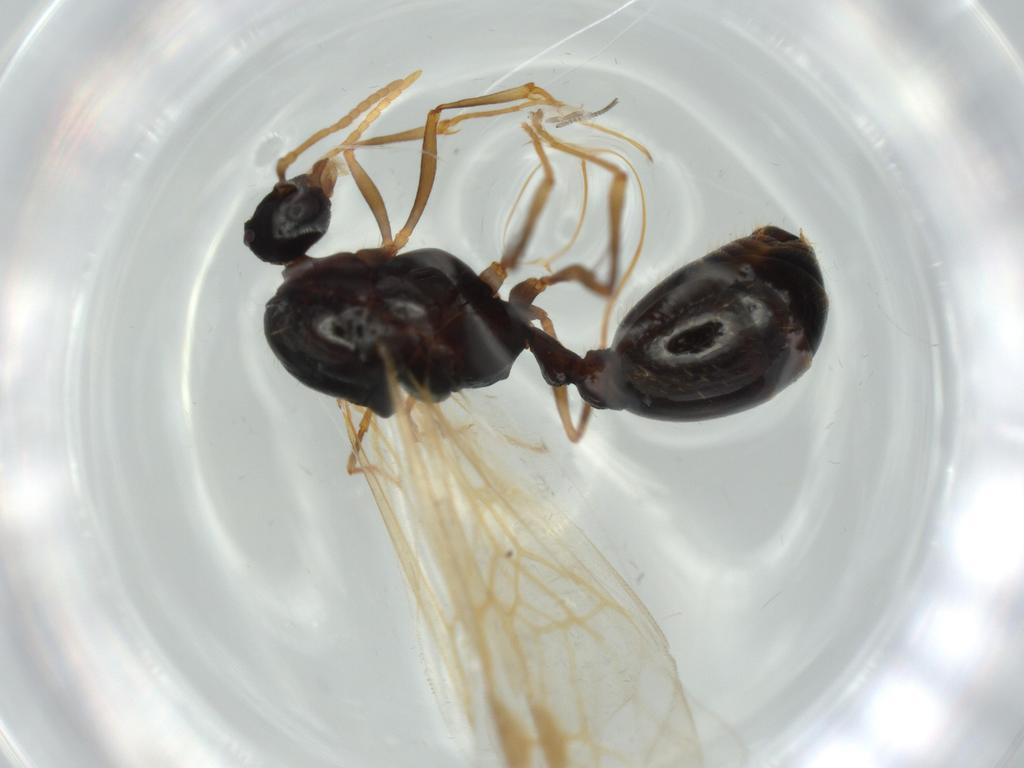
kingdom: Animalia
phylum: Arthropoda
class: Insecta
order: Hymenoptera
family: Formicidae
